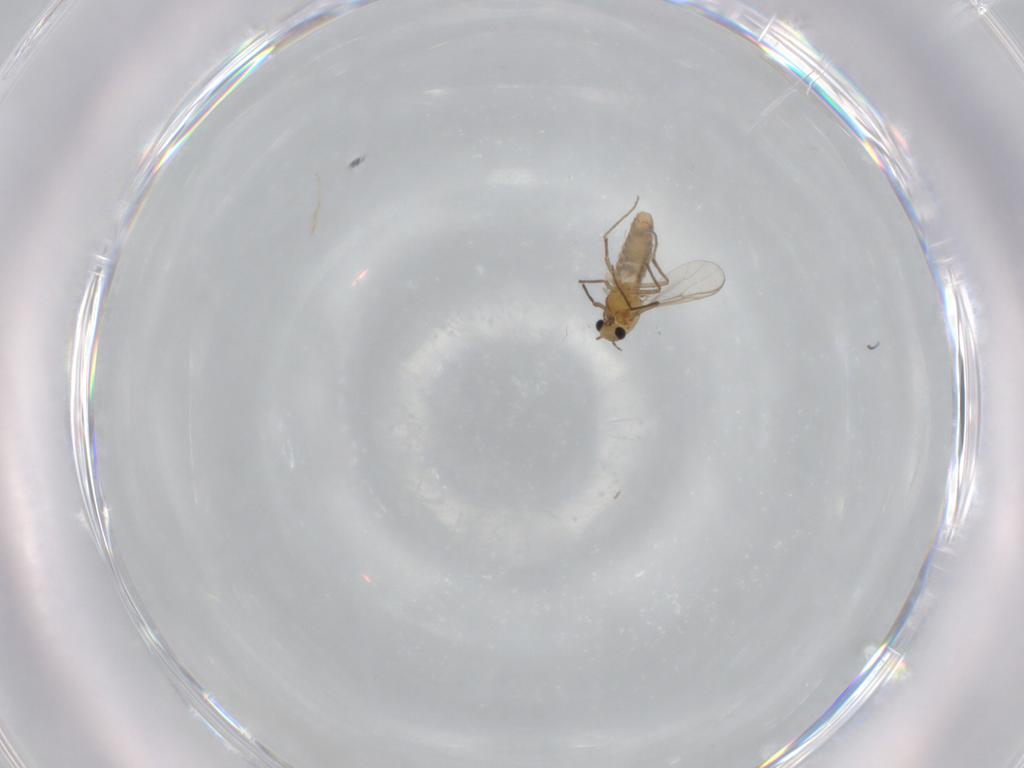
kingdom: Animalia
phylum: Arthropoda
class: Insecta
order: Diptera
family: Chironomidae
